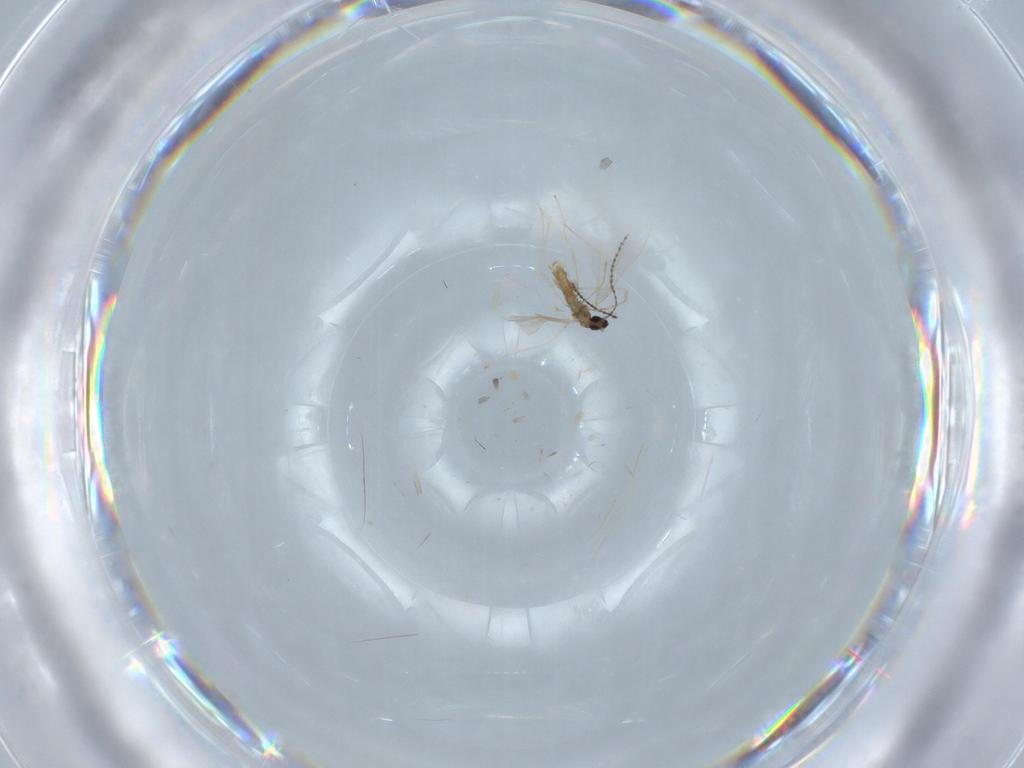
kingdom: Animalia
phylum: Arthropoda
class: Insecta
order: Diptera
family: Cecidomyiidae
